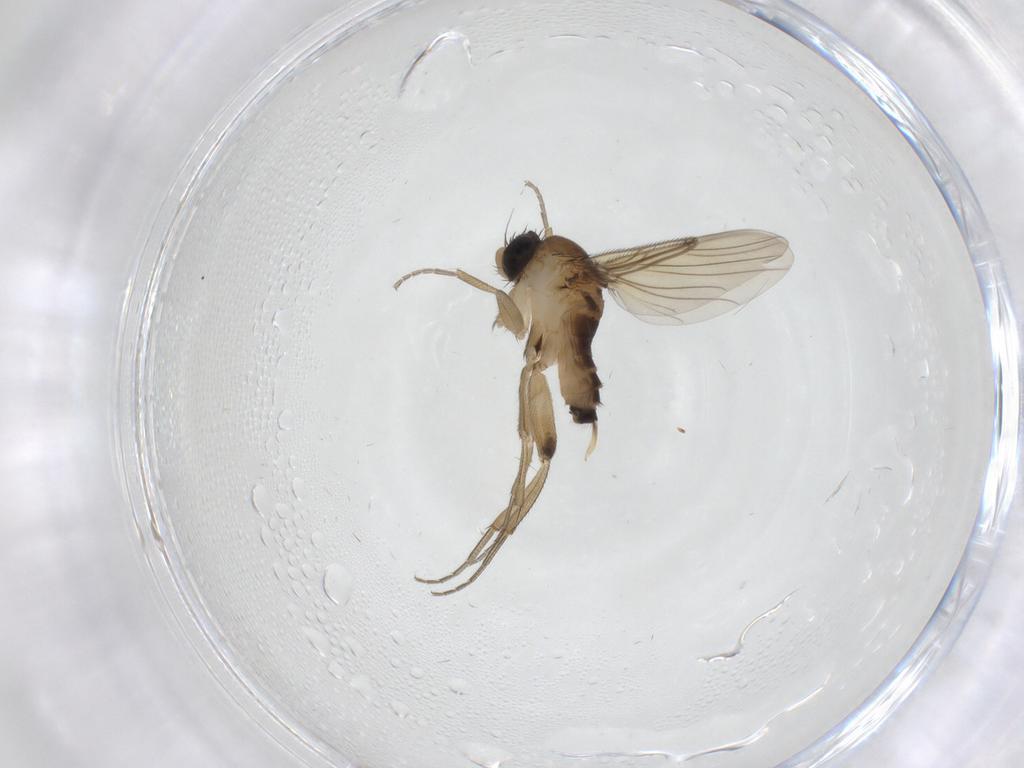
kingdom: Animalia
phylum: Arthropoda
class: Insecta
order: Diptera
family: Phoridae
